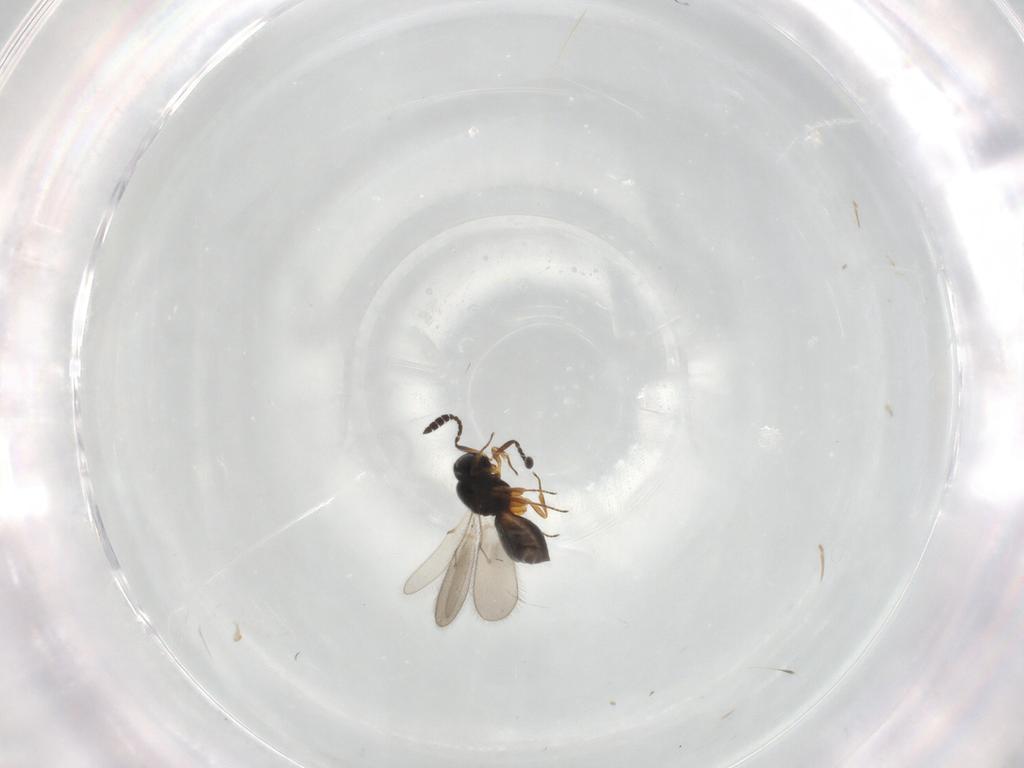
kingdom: Animalia
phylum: Arthropoda
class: Insecta
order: Hymenoptera
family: Scelionidae
